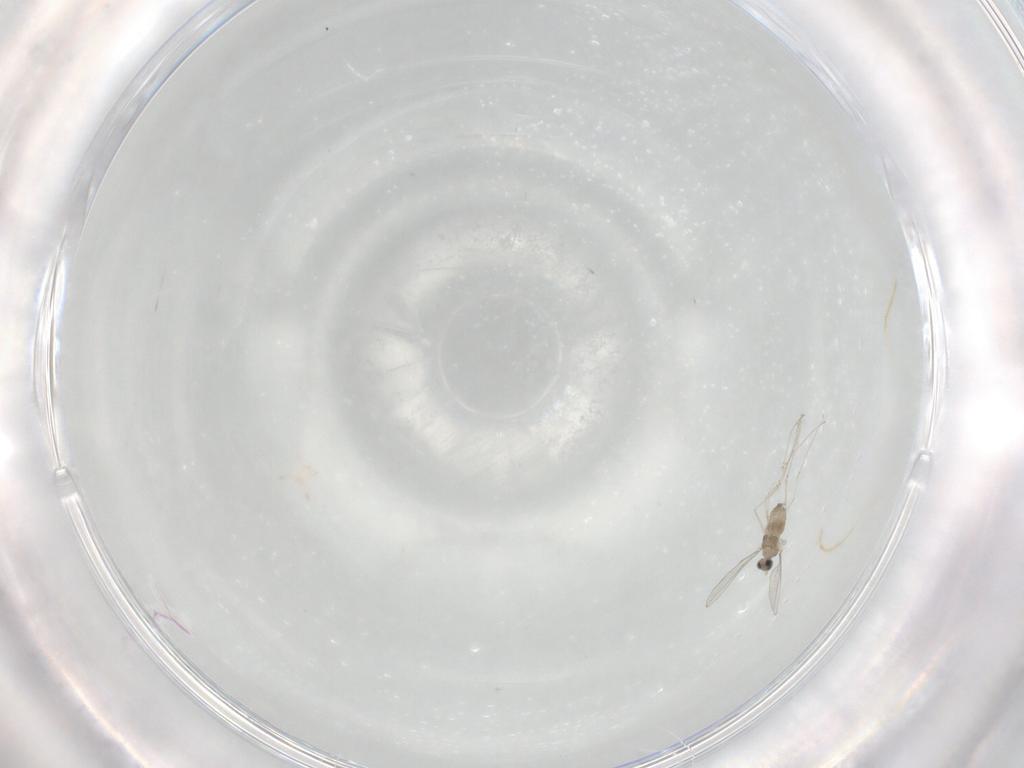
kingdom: Animalia
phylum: Arthropoda
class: Insecta
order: Diptera
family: Cecidomyiidae
